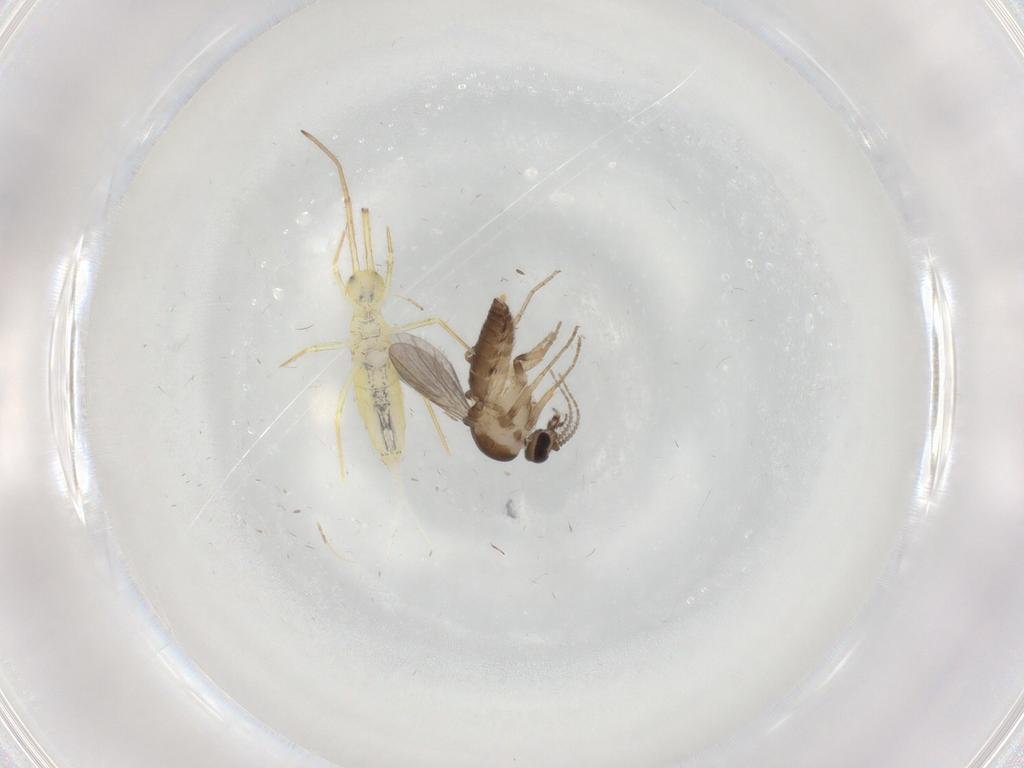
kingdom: Animalia
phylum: Arthropoda
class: Insecta
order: Diptera
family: Ceratopogonidae
